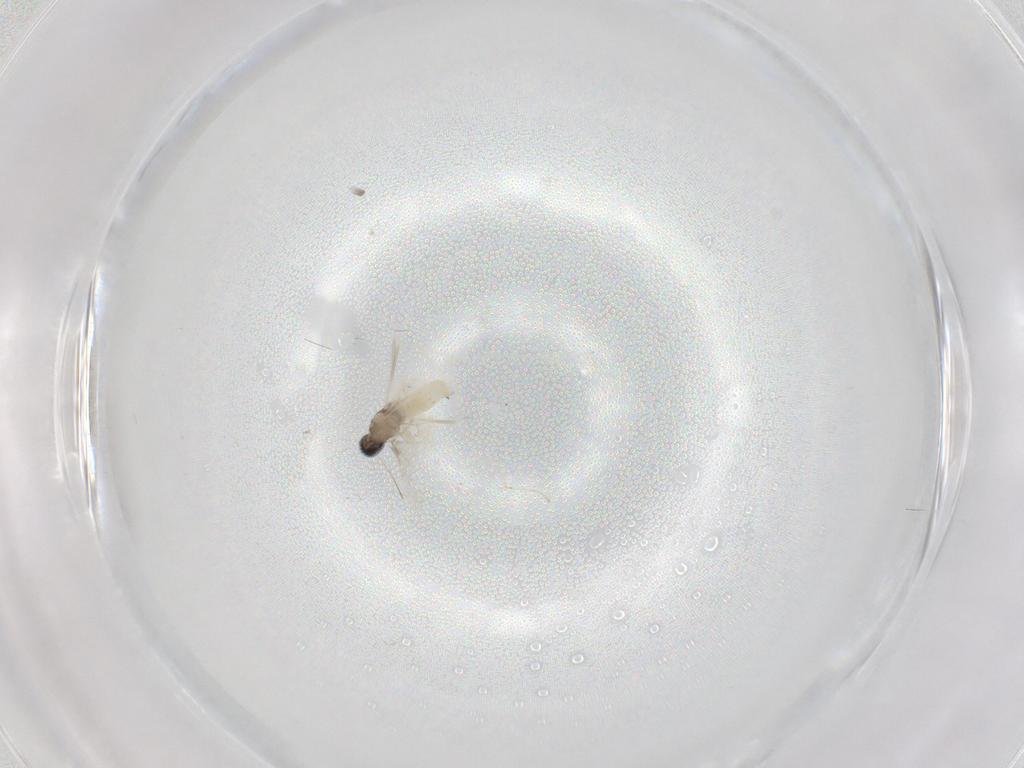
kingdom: Animalia
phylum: Arthropoda
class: Insecta
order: Diptera
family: Cecidomyiidae
